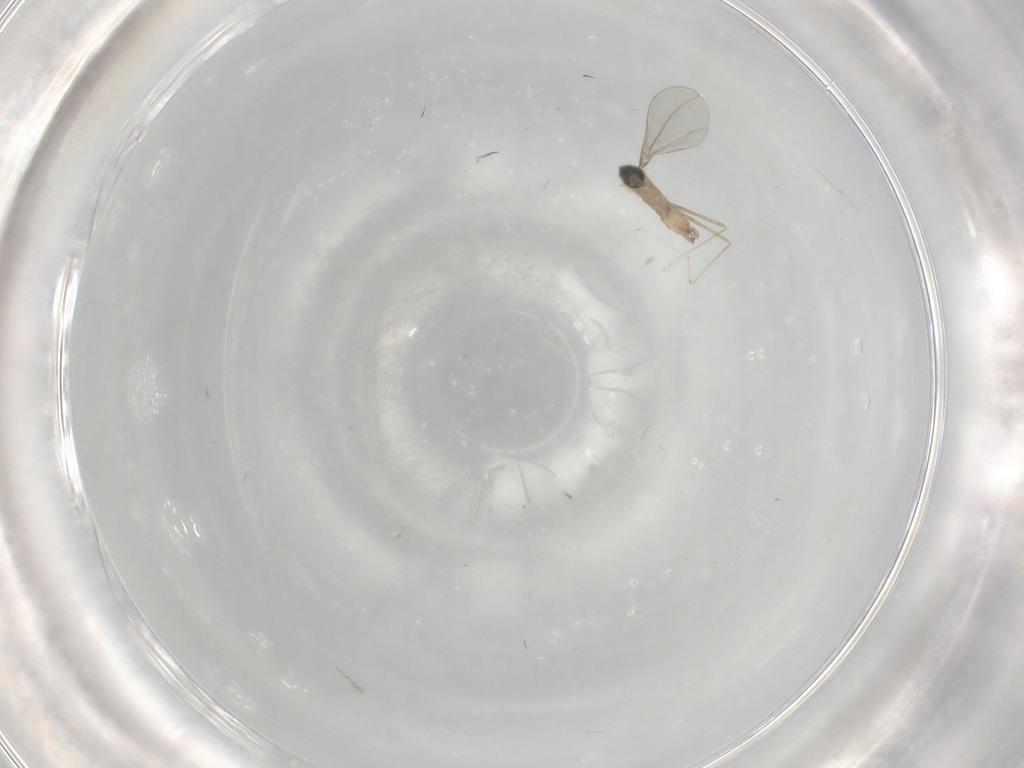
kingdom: Animalia
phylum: Arthropoda
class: Insecta
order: Diptera
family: Cecidomyiidae
